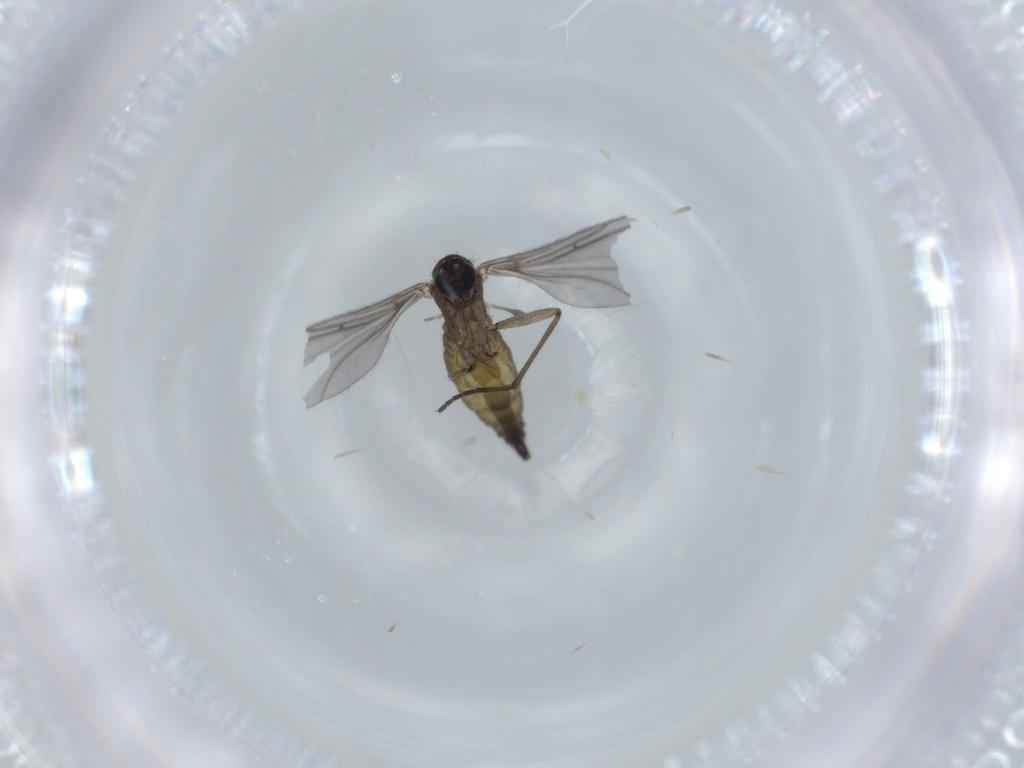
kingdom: Animalia
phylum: Arthropoda
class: Insecta
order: Diptera
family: Sciaridae
